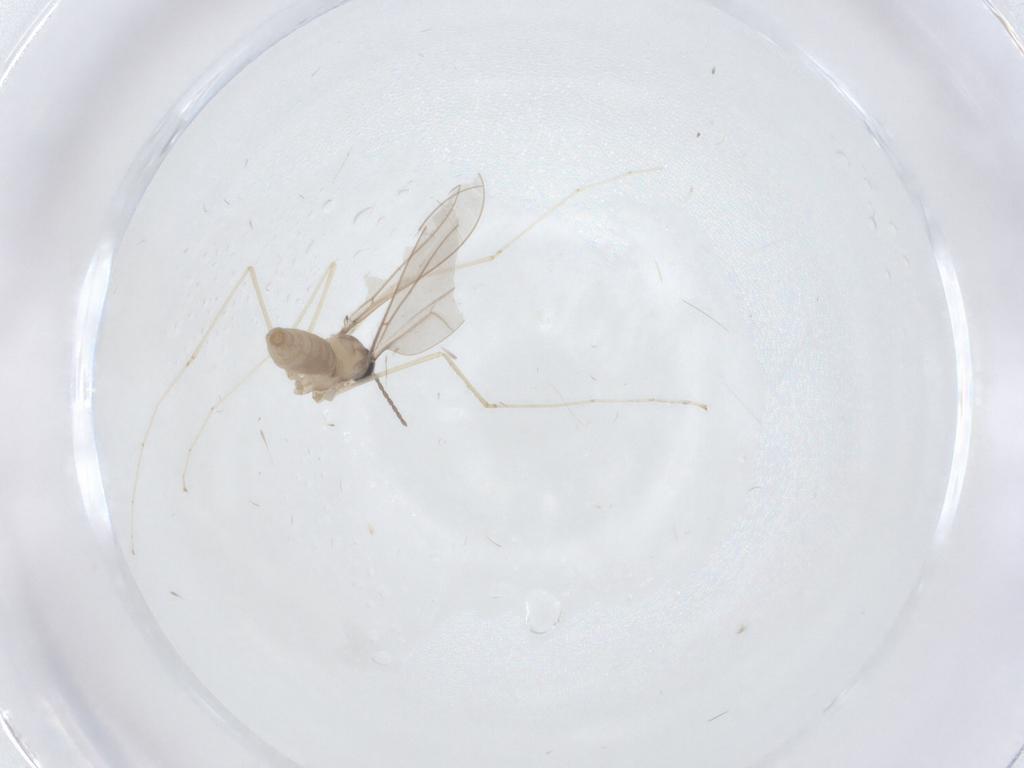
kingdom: Animalia
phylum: Arthropoda
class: Insecta
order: Diptera
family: Cecidomyiidae
